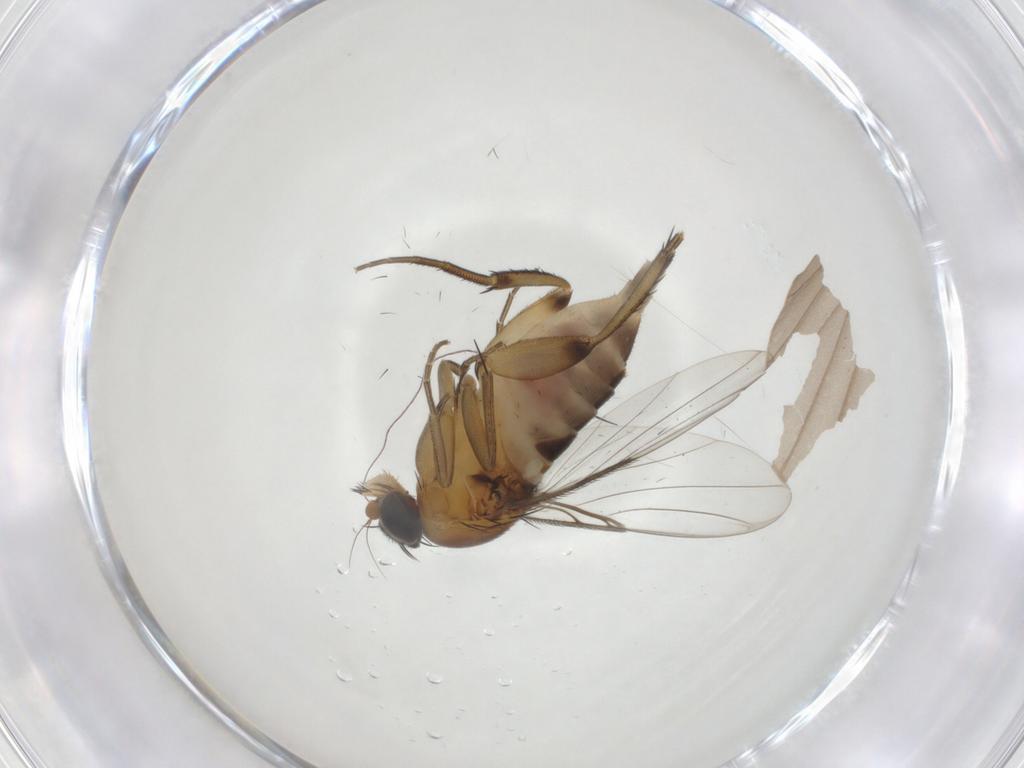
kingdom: Animalia
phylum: Arthropoda
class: Insecta
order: Diptera
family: Phoridae
